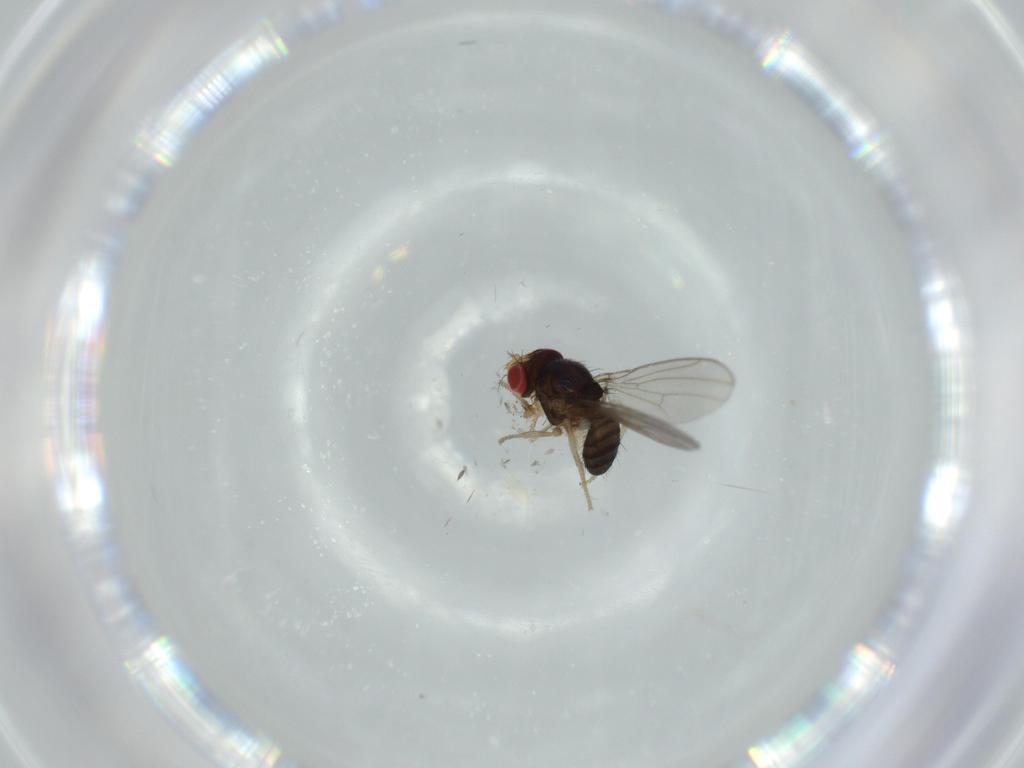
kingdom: Animalia
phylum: Arthropoda
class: Insecta
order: Diptera
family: Drosophilidae
